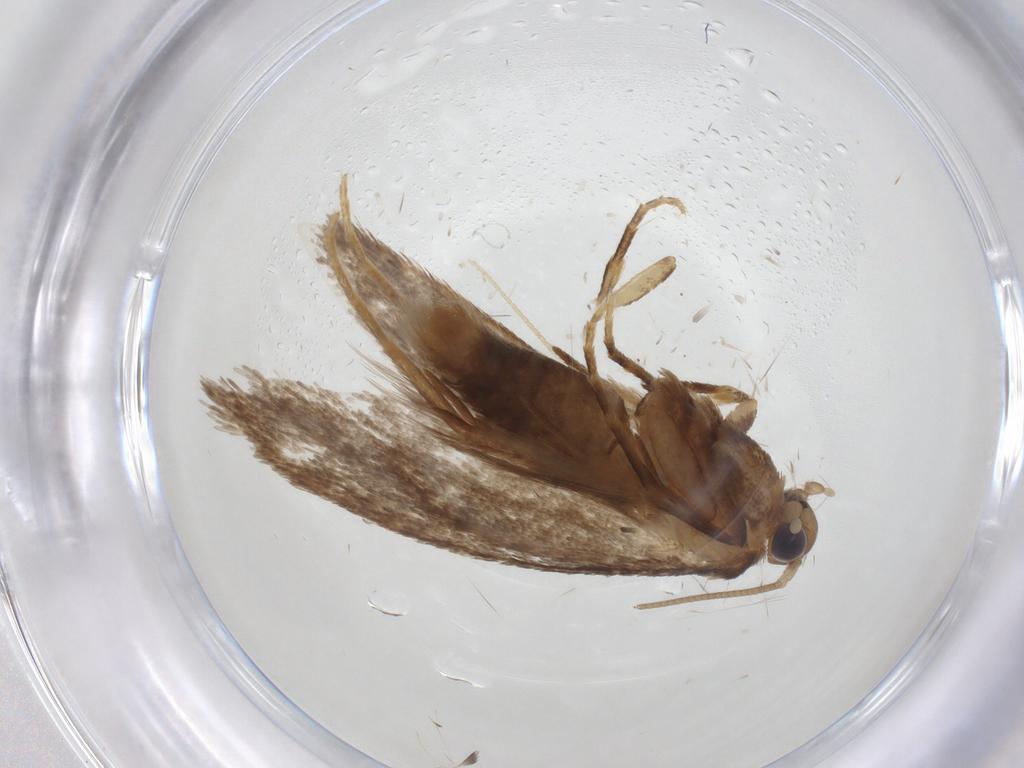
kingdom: Animalia
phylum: Arthropoda
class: Insecta
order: Lepidoptera
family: Tineidae
